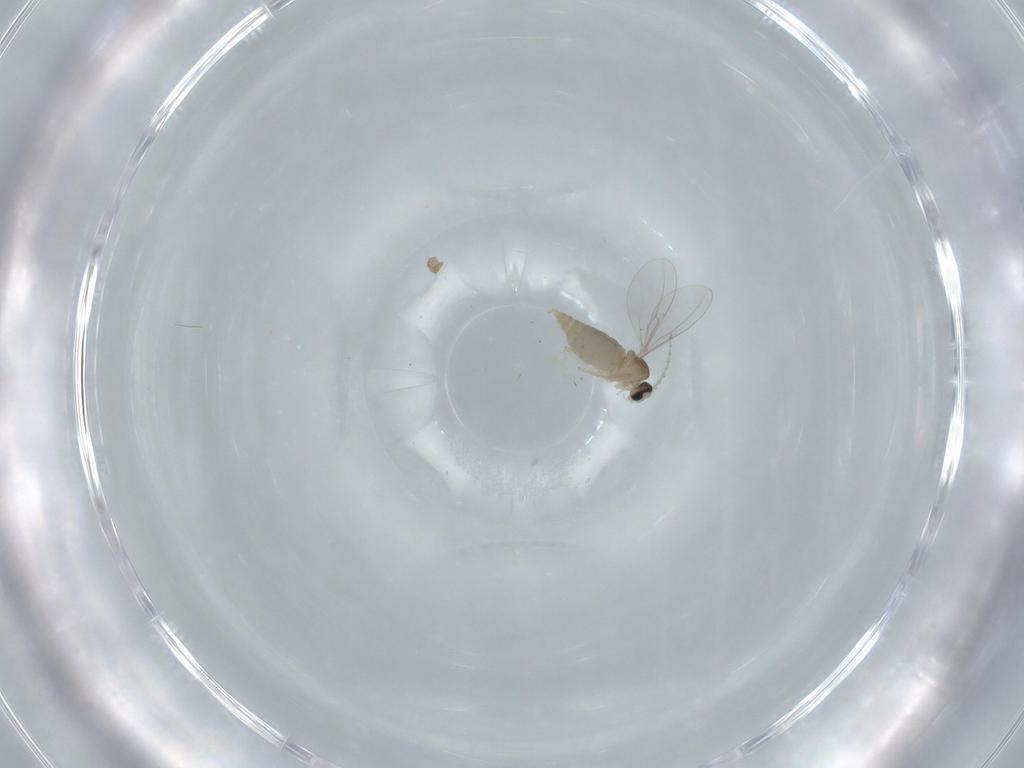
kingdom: Animalia
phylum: Arthropoda
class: Insecta
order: Diptera
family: Cecidomyiidae
